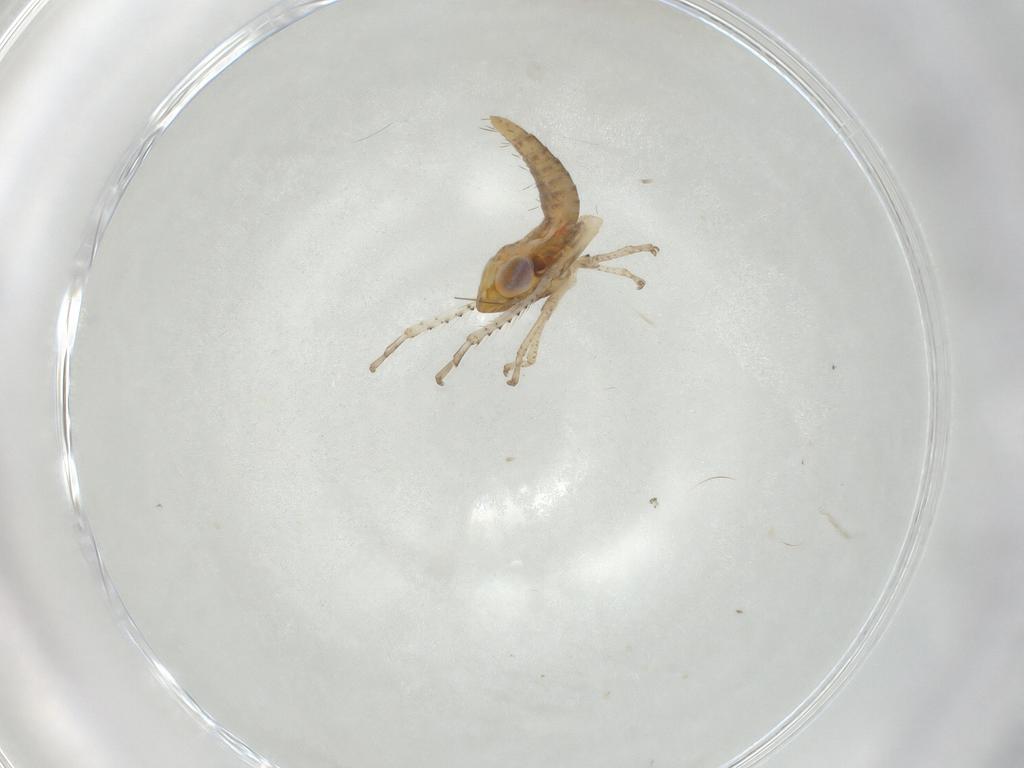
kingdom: Animalia
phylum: Arthropoda
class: Insecta
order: Hemiptera
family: Cicadellidae
